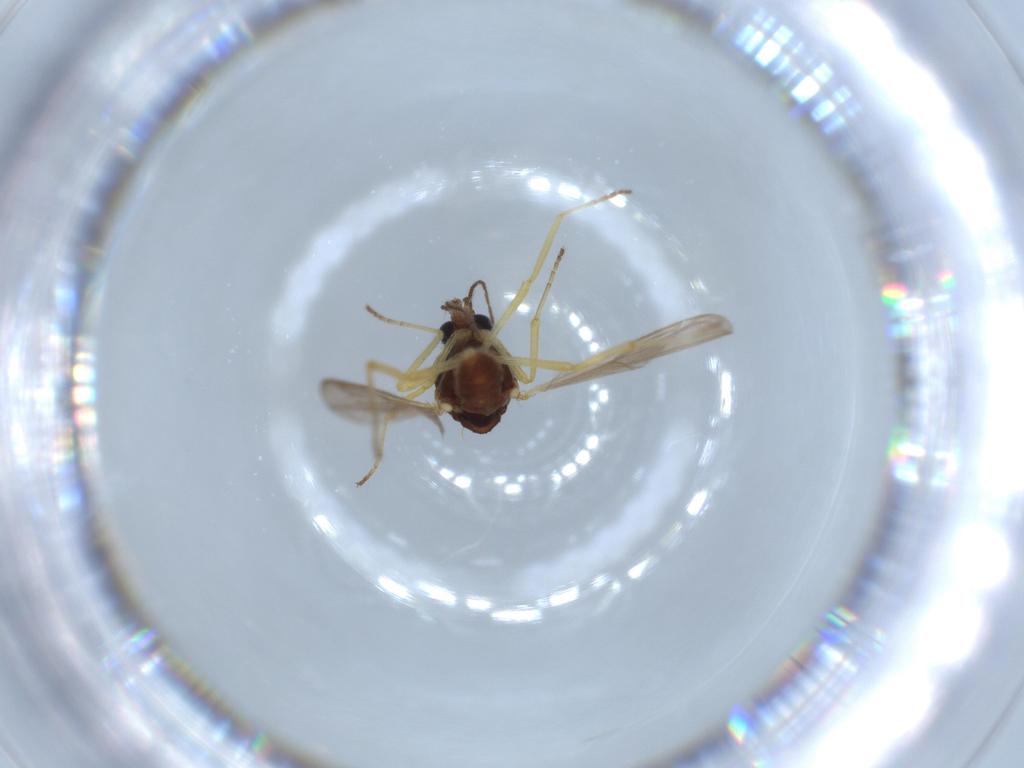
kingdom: Animalia
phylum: Arthropoda
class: Insecta
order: Diptera
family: Ceratopogonidae
